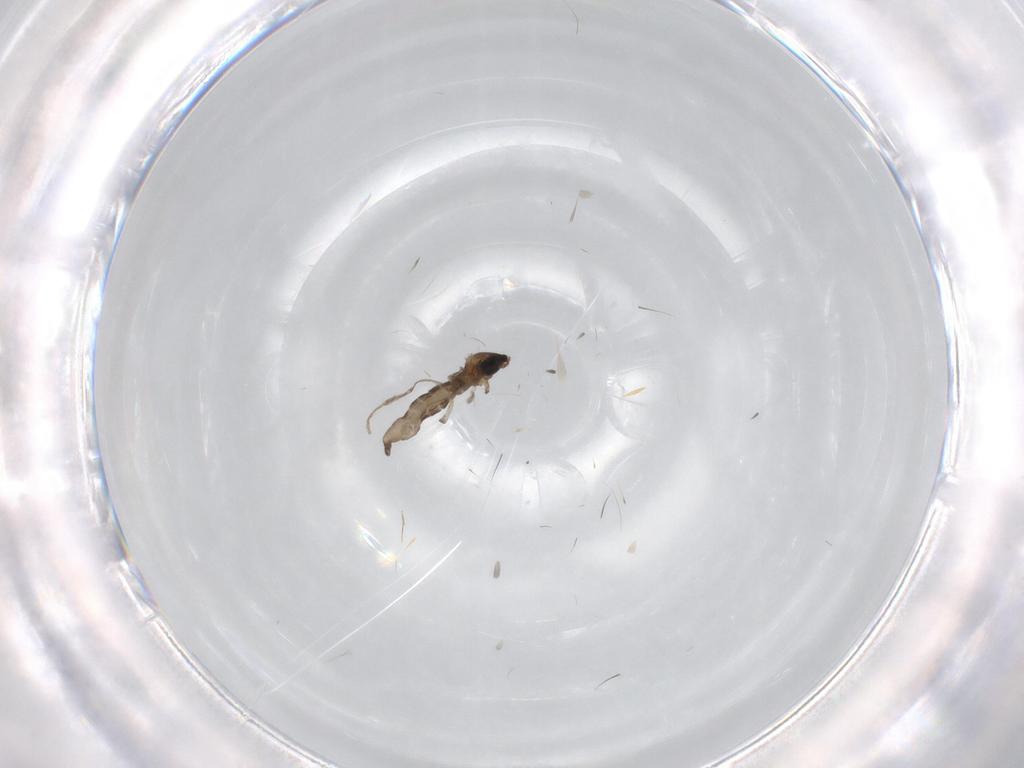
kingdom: Animalia
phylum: Arthropoda
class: Insecta
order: Diptera
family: Cecidomyiidae
